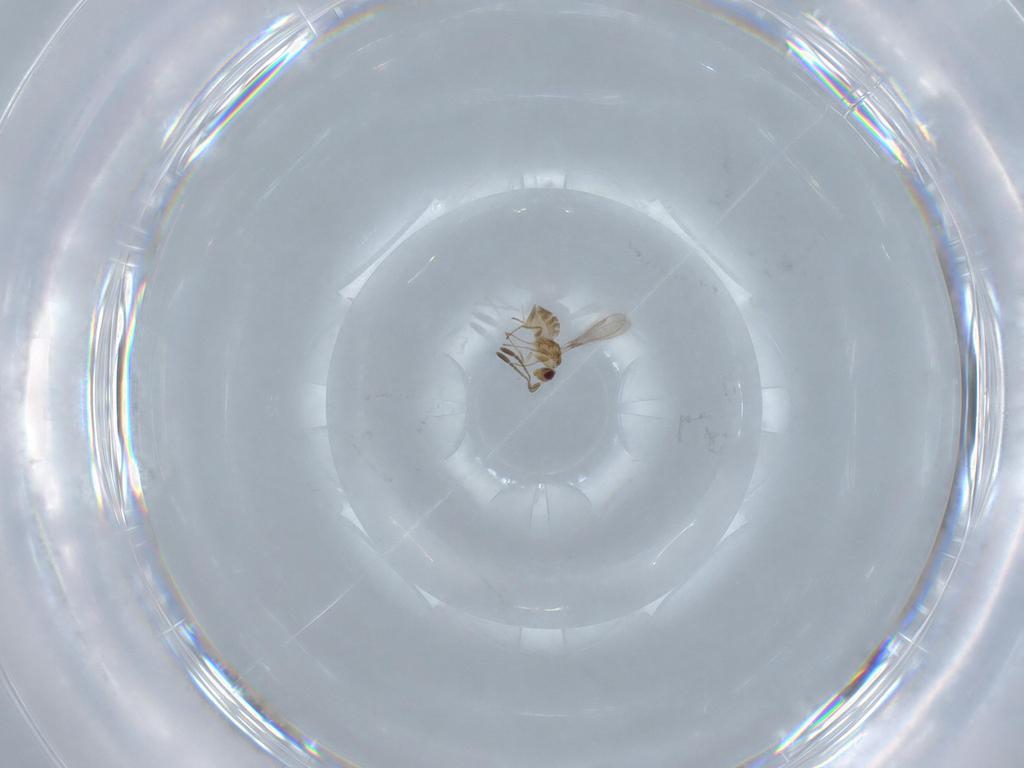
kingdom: Animalia
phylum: Arthropoda
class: Insecta
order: Hymenoptera
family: Mymaridae
